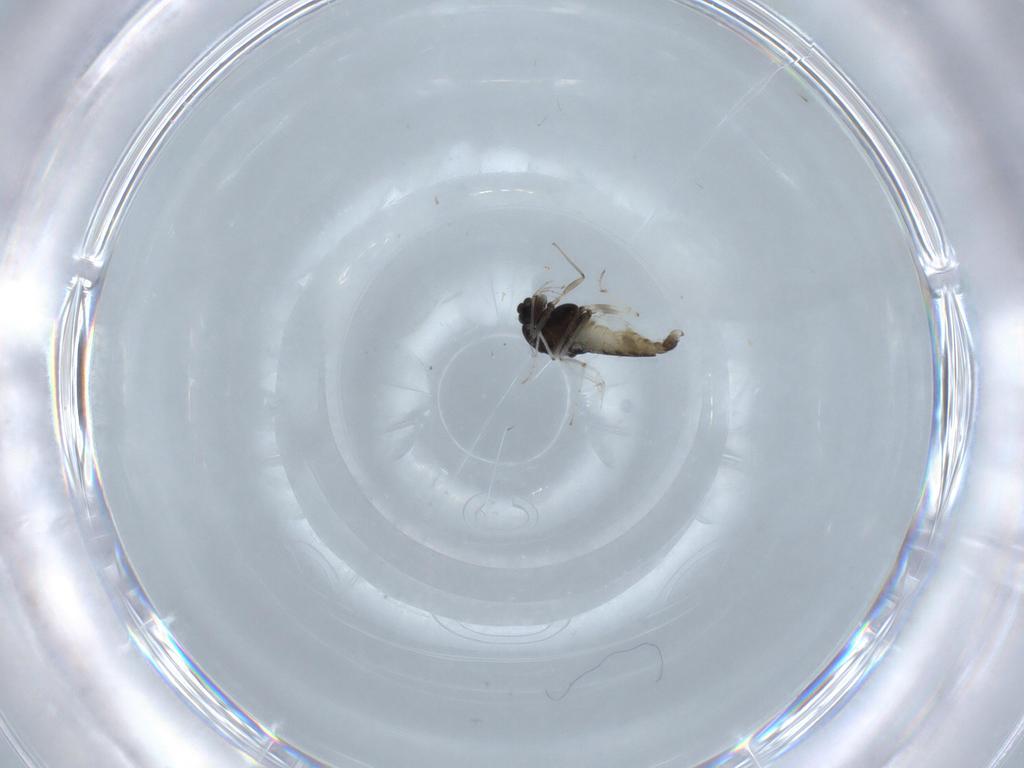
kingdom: Animalia
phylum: Arthropoda
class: Insecta
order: Diptera
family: Chironomidae
